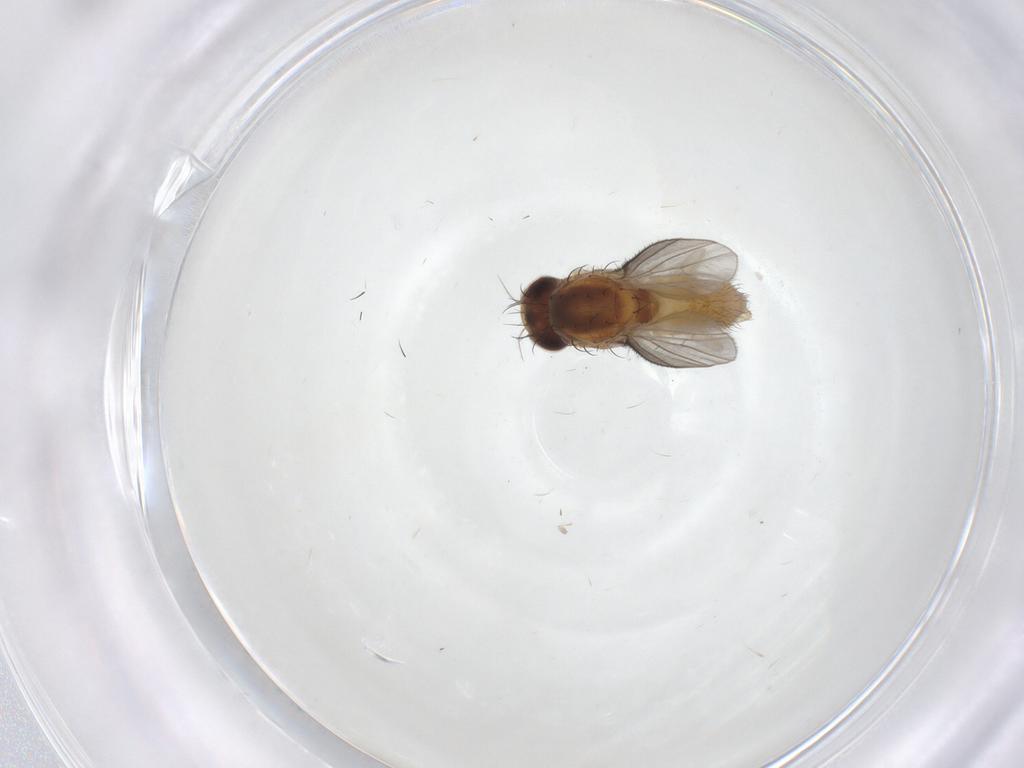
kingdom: Animalia
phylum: Arthropoda
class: Insecta
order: Diptera
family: Heleomyzidae
